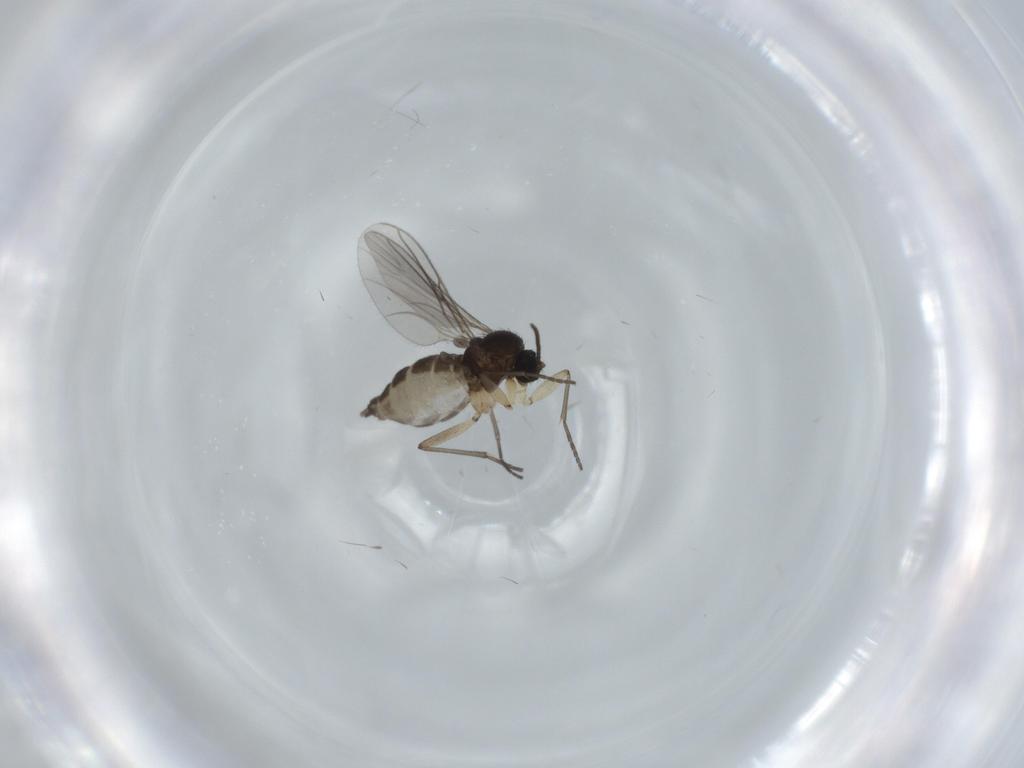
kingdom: Animalia
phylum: Arthropoda
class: Insecta
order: Diptera
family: Sciaridae
